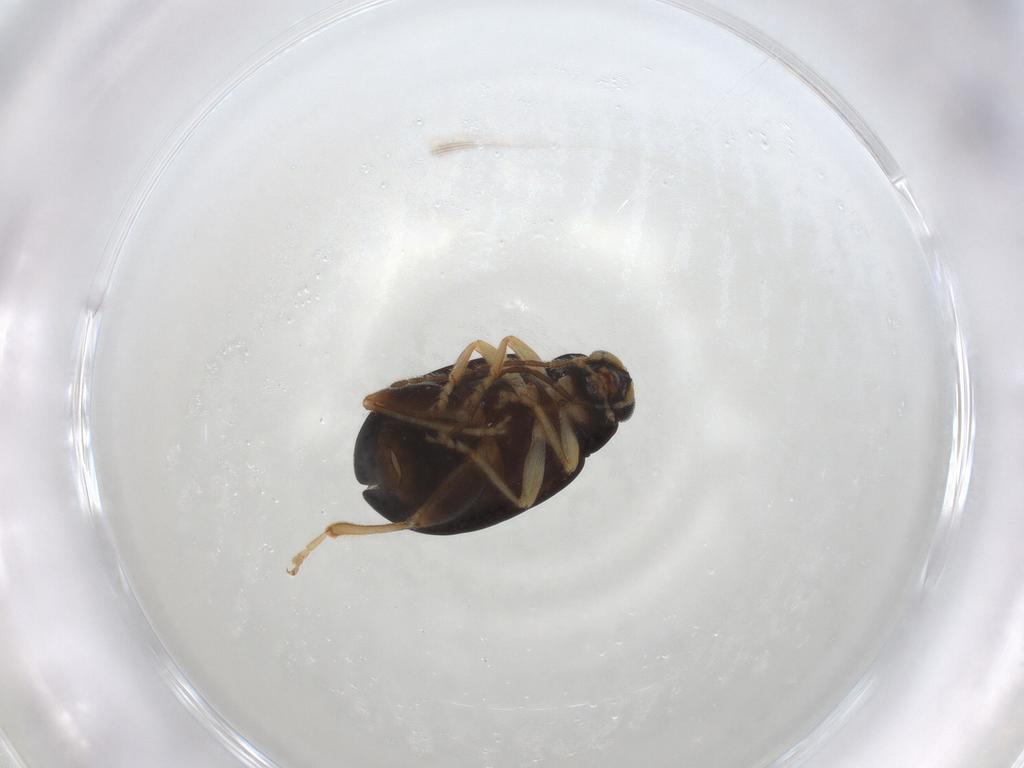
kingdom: Animalia
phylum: Arthropoda
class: Insecta
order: Coleoptera
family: Chrysomelidae
